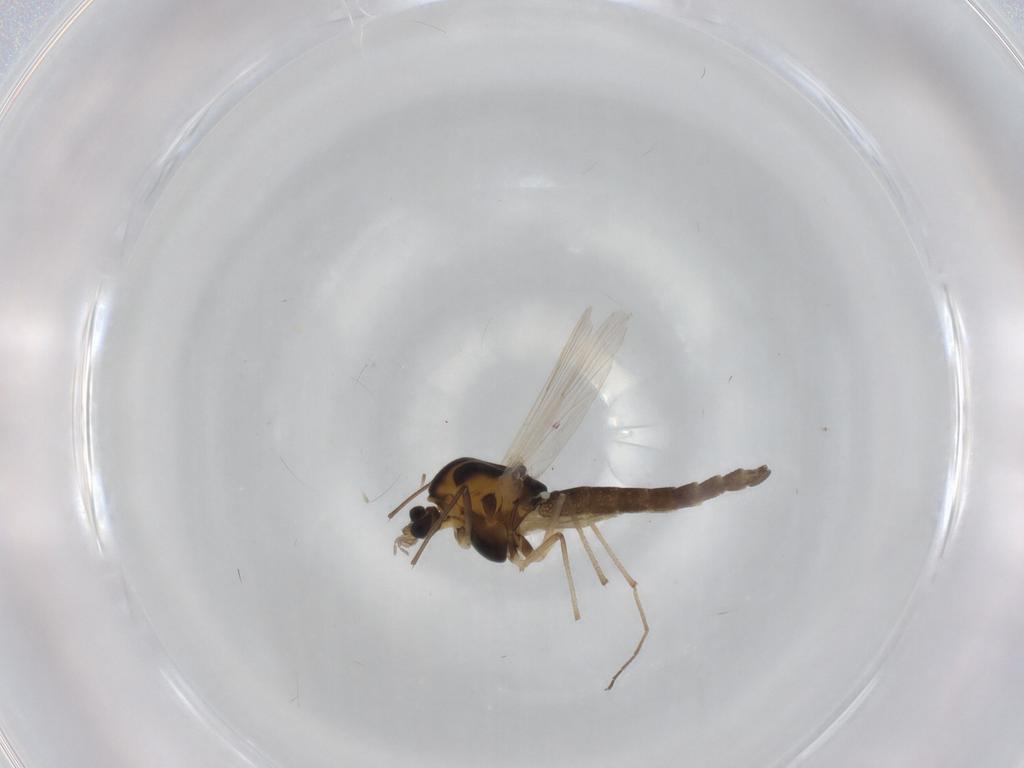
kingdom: Animalia
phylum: Arthropoda
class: Insecta
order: Diptera
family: Chironomidae
